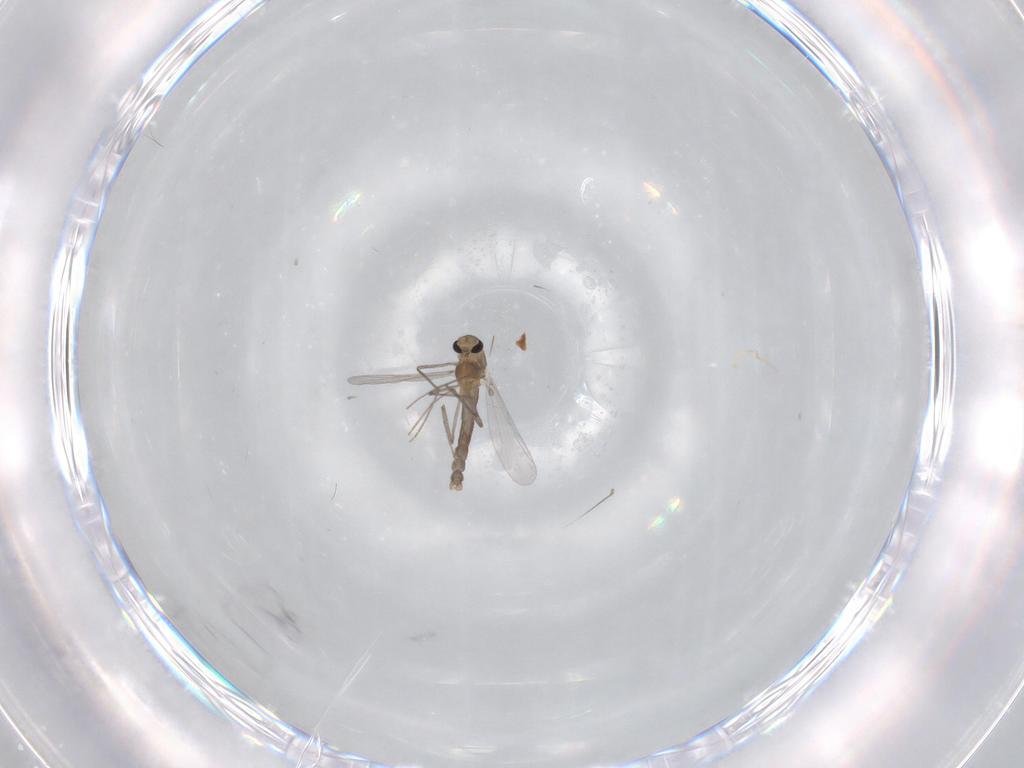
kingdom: Animalia
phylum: Arthropoda
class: Insecta
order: Diptera
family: Chironomidae
